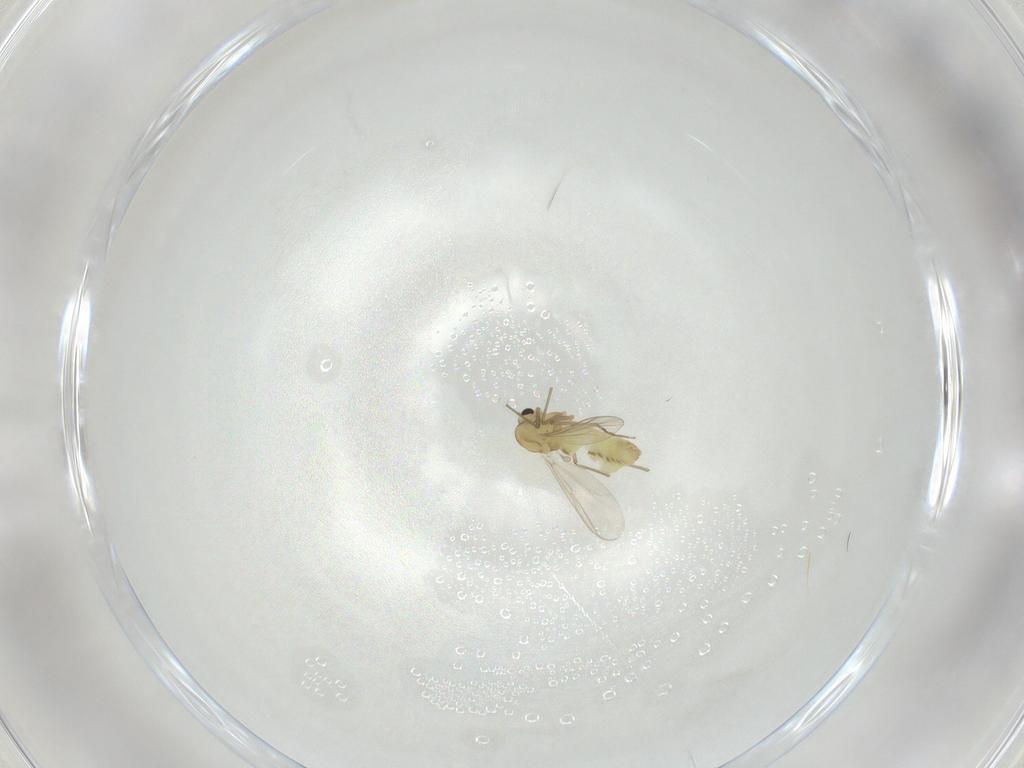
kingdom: Animalia
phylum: Arthropoda
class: Insecta
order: Diptera
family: Chironomidae
